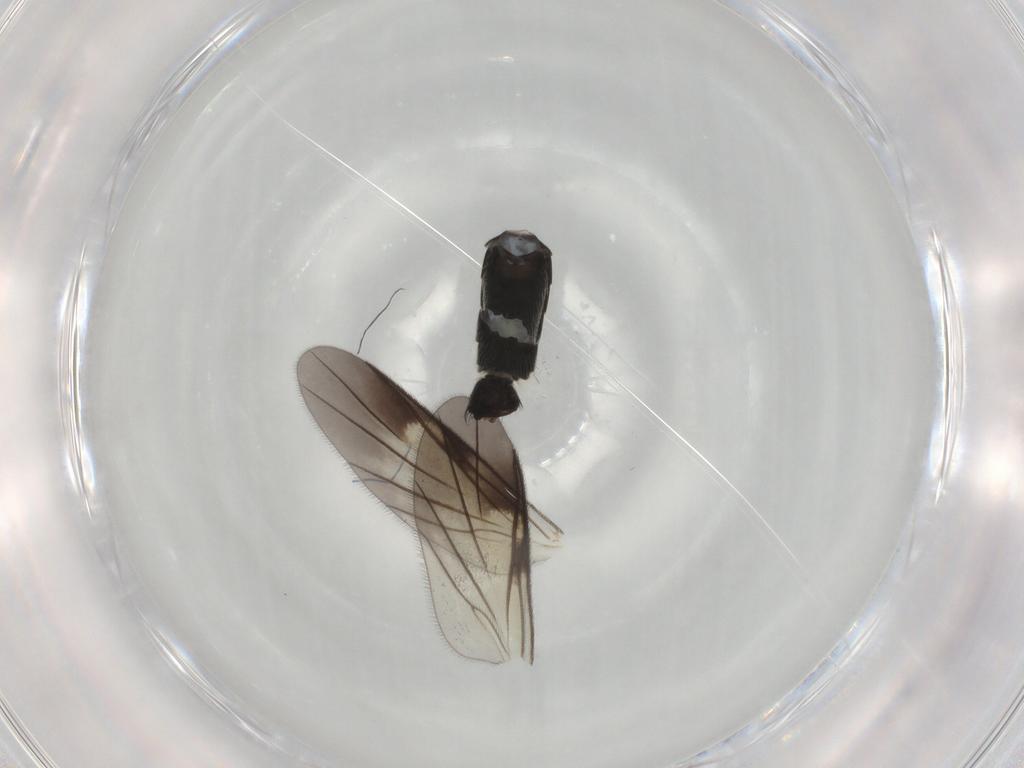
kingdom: Animalia
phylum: Arthropoda
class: Insecta
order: Diptera
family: Mycetophilidae
